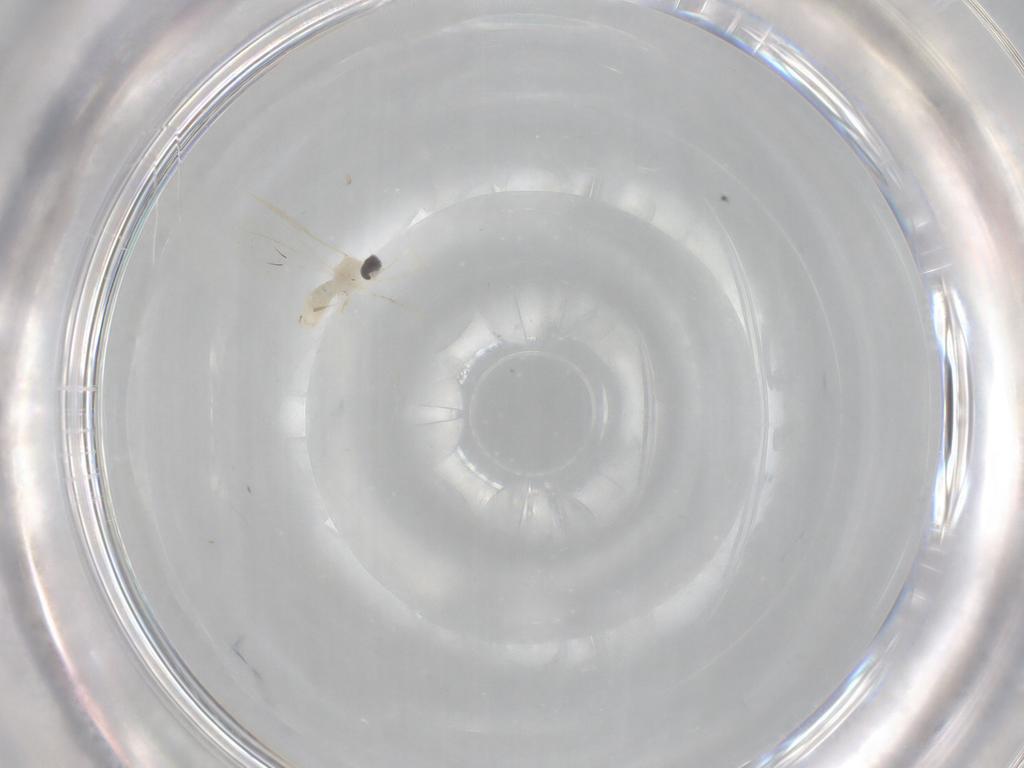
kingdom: Animalia
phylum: Arthropoda
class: Insecta
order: Diptera
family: Cecidomyiidae
